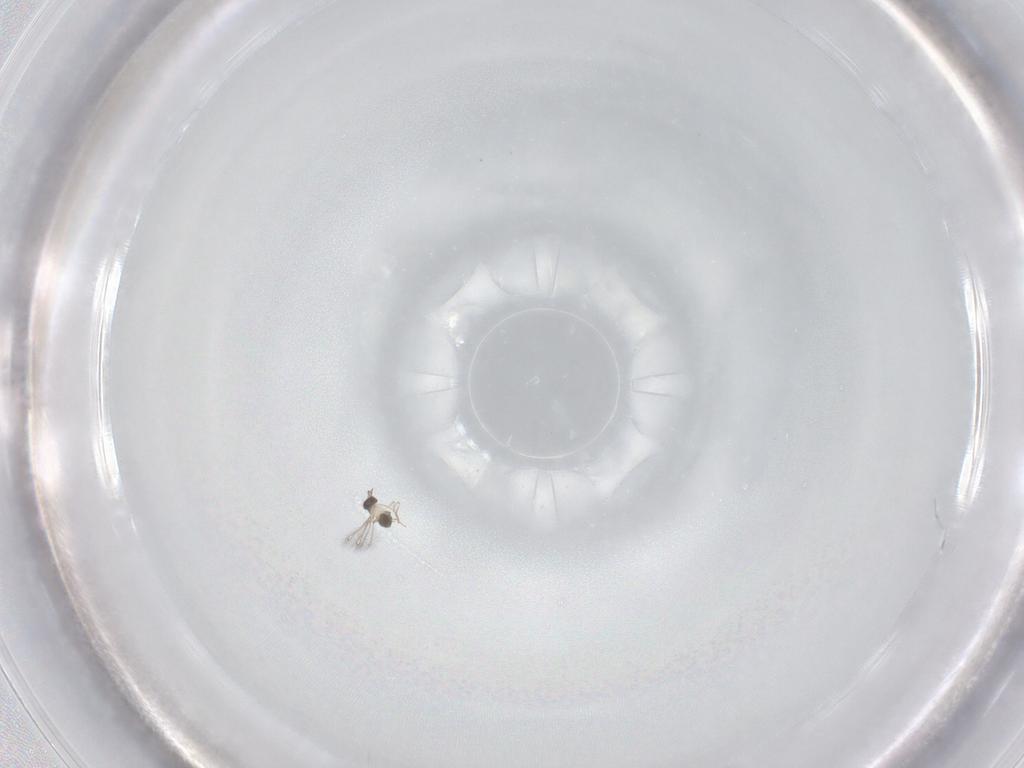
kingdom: Animalia
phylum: Arthropoda
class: Insecta
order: Hymenoptera
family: Mymaridae
